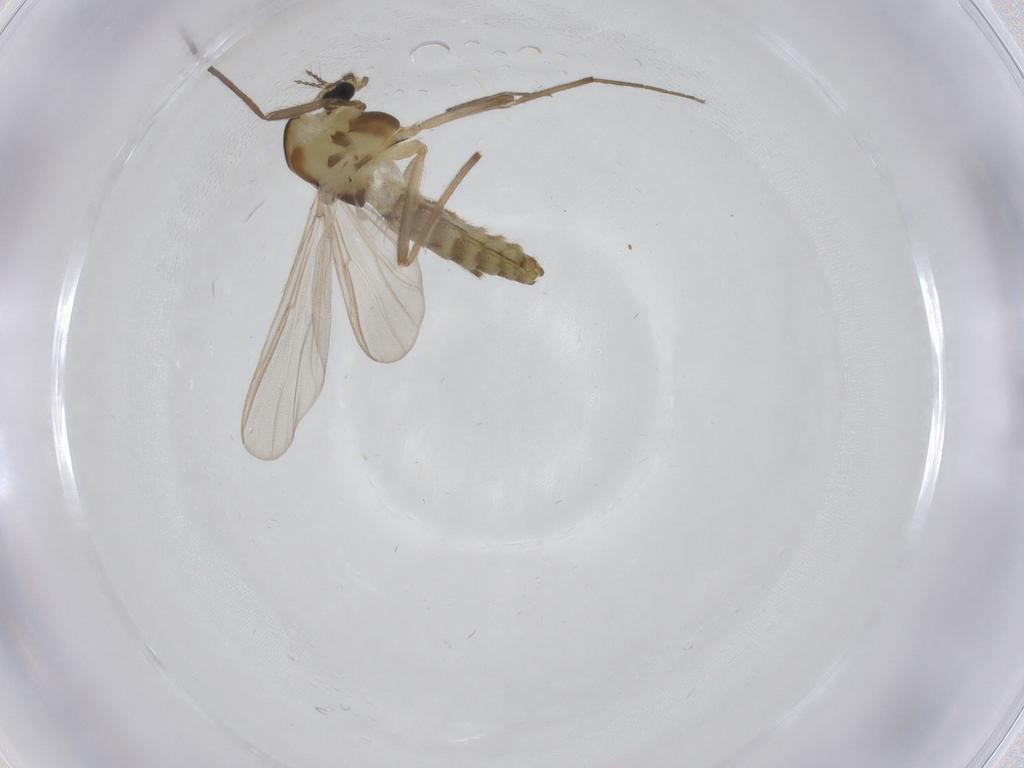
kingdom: Animalia
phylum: Arthropoda
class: Insecta
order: Diptera
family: Chironomidae
